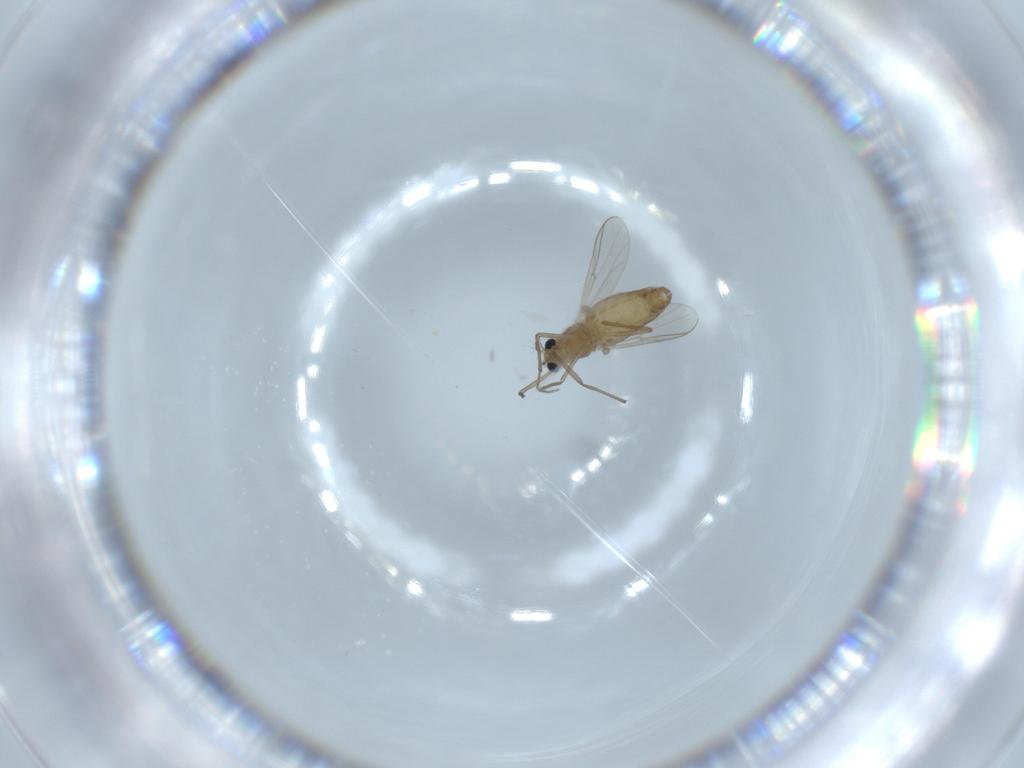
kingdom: Animalia
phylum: Arthropoda
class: Insecta
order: Diptera
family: Chironomidae
